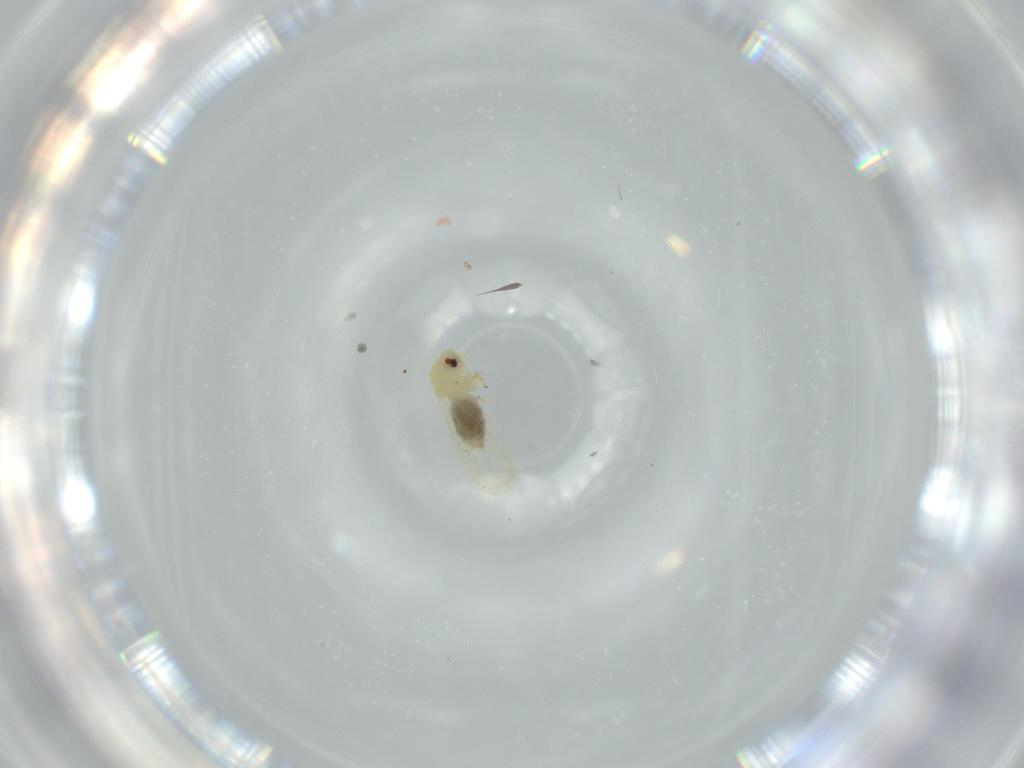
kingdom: Animalia
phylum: Arthropoda
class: Insecta
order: Hemiptera
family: Aleyrodidae
